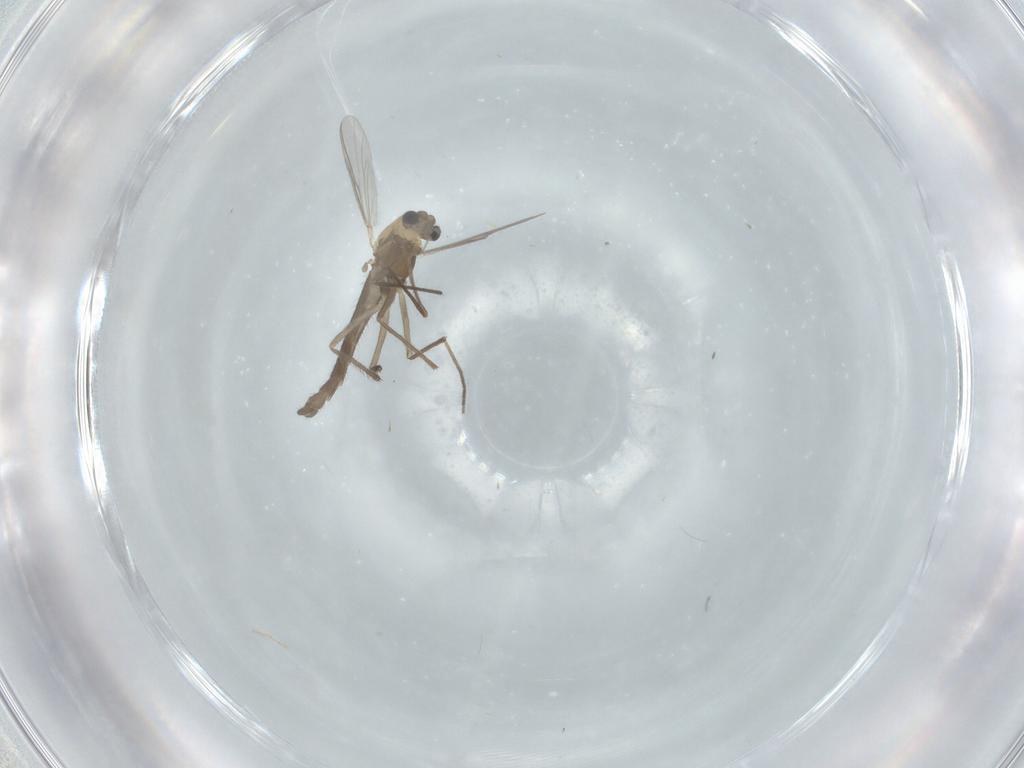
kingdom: Animalia
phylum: Arthropoda
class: Insecta
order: Diptera
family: Chironomidae
